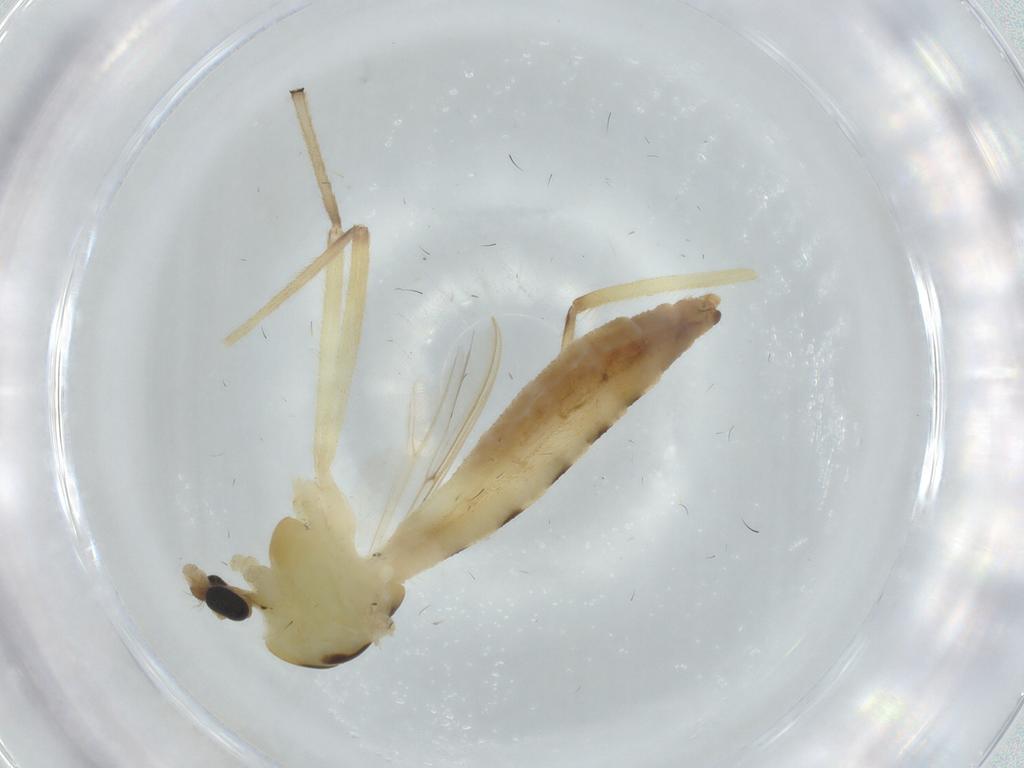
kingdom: Animalia
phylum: Arthropoda
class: Insecta
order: Diptera
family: Chironomidae
